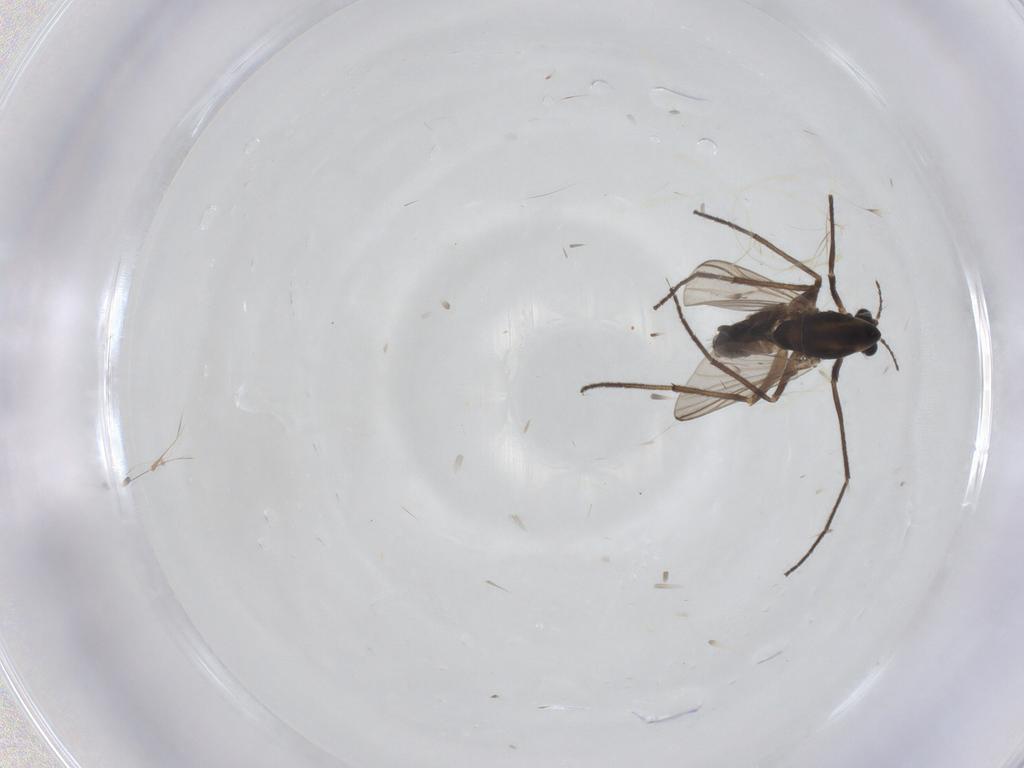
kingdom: Animalia
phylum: Arthropoda
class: Insecta
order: Diptera
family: Chironomidae
